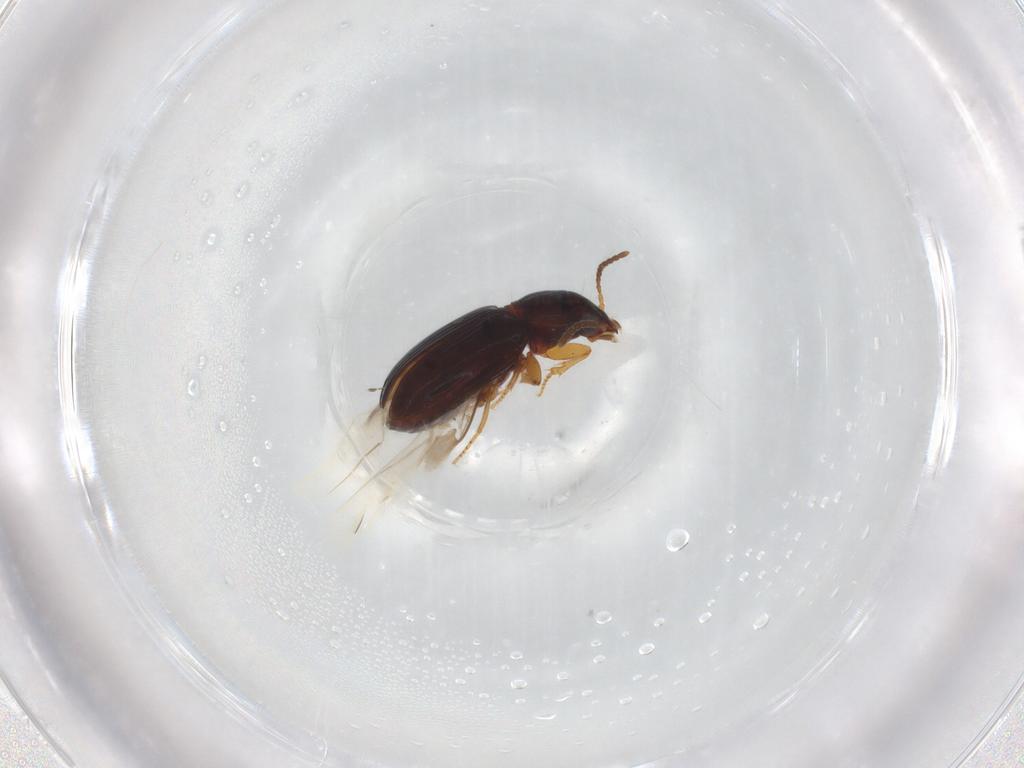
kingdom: Animalia
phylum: Arthropoda
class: Insecta
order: Coleoptera
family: Carabidae
